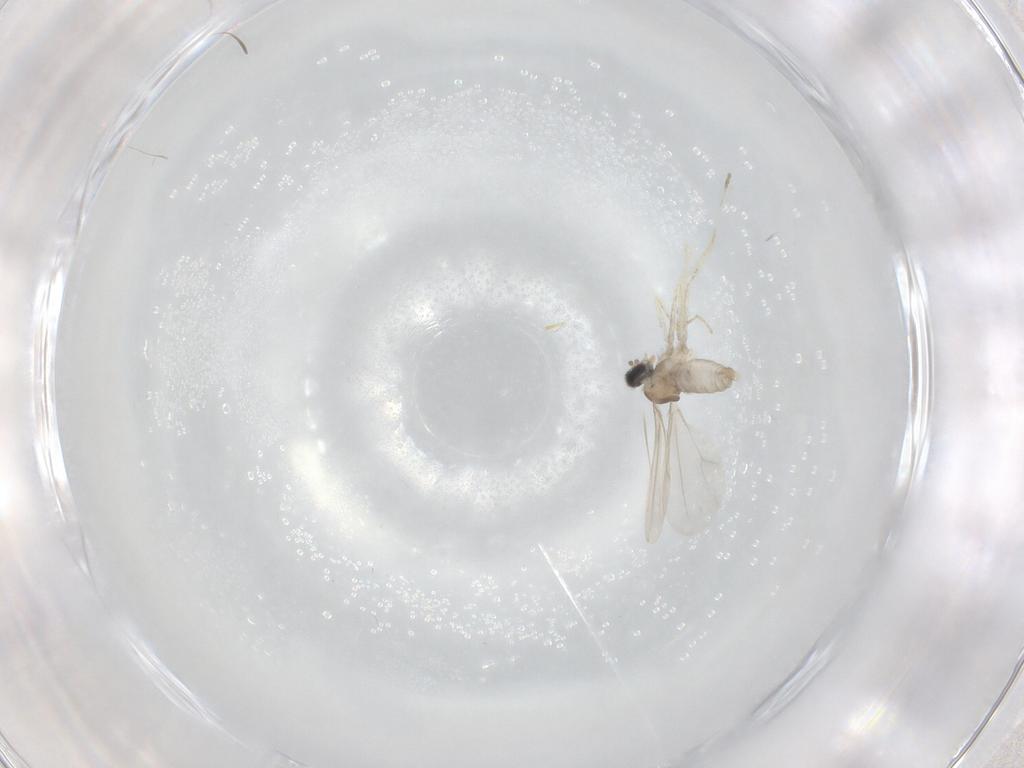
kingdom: Animalia
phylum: Arthropoda
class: Insecta
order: Diptera
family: Cecidomyiidae
